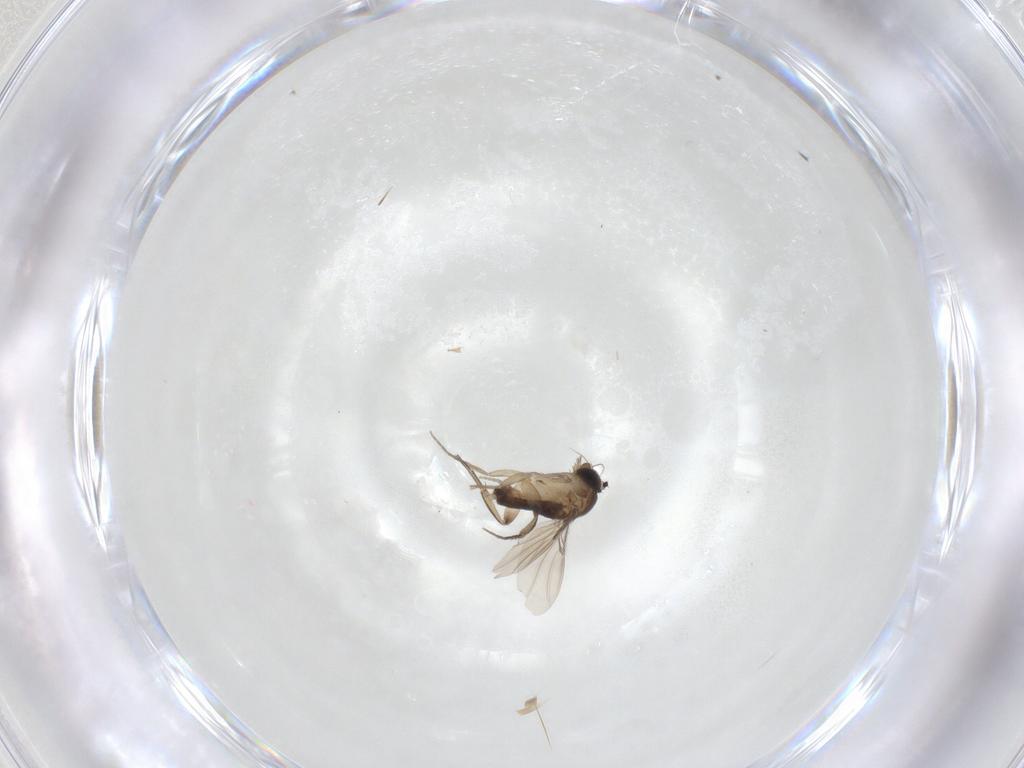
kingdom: Animalia
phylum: Arthropoda
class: Insecta
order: Diptera
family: Phoridae
